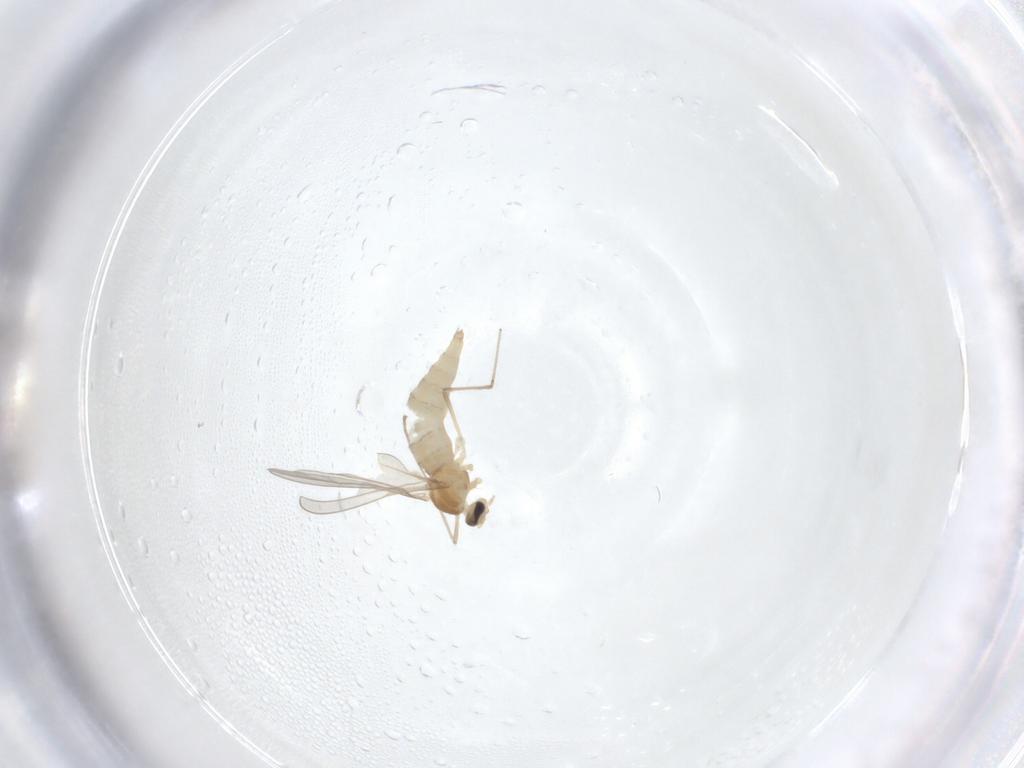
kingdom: Animalia
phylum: Arthropoda
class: Insecta
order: Diptera
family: Cecidomyiidae
